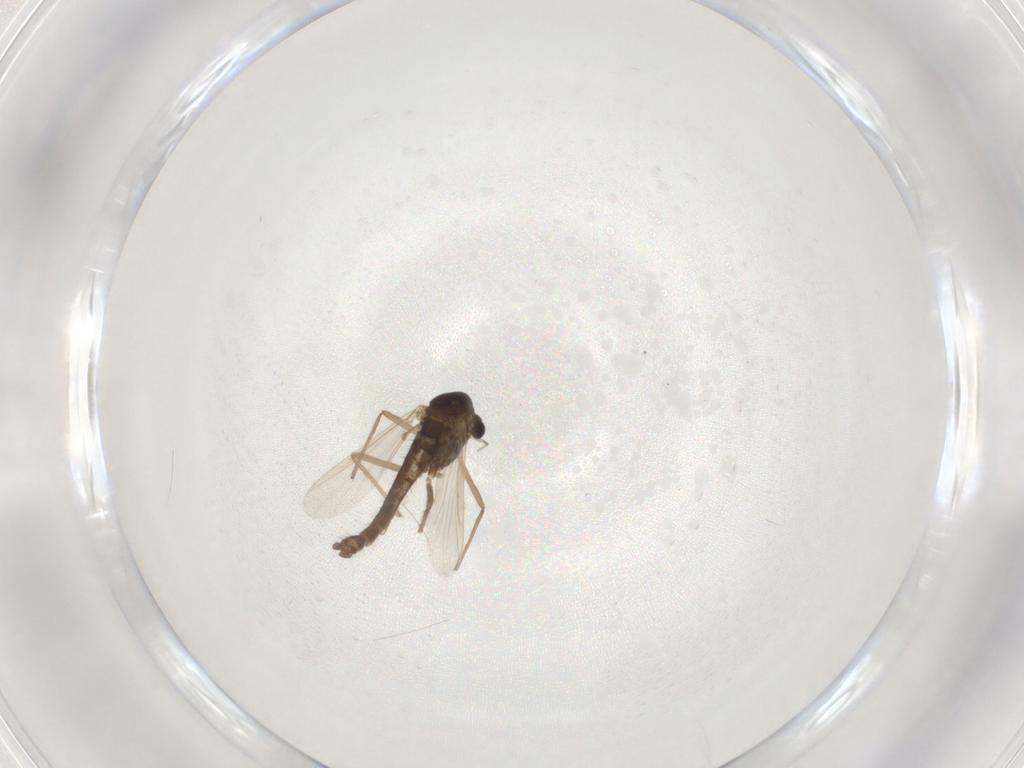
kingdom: Animalia
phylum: Arthropoda
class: Insecta
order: Diptera
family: Chironomidae
